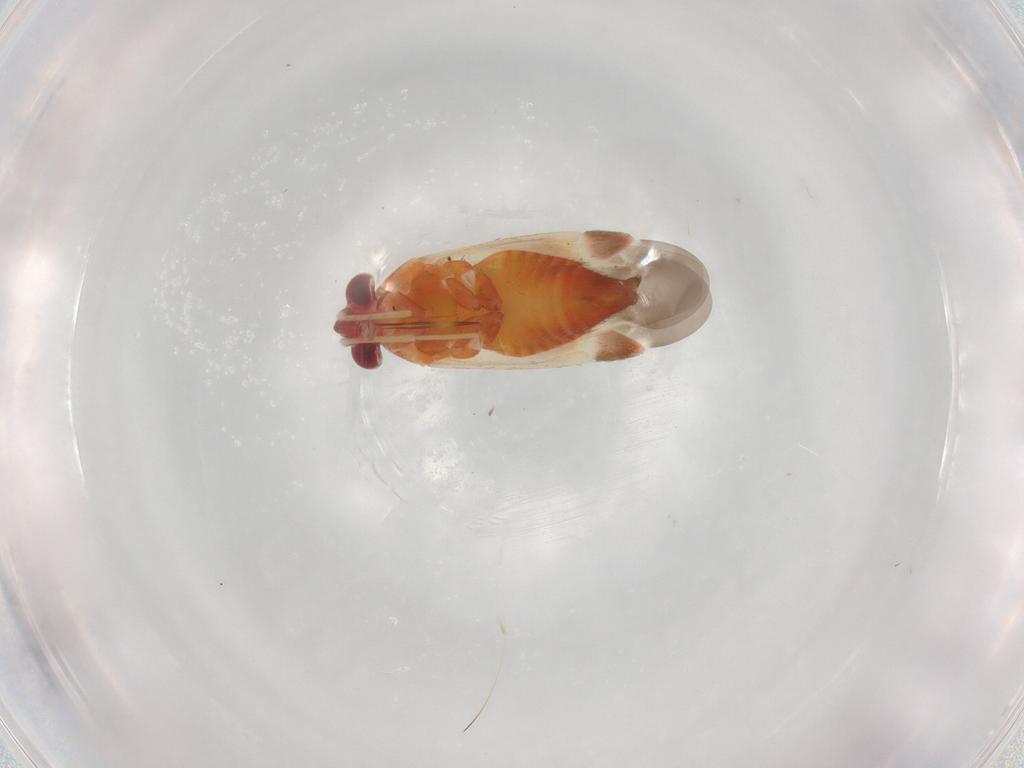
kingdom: Animalia
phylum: Arthropoda
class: Insecta
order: Hemiptera
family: Miridae
